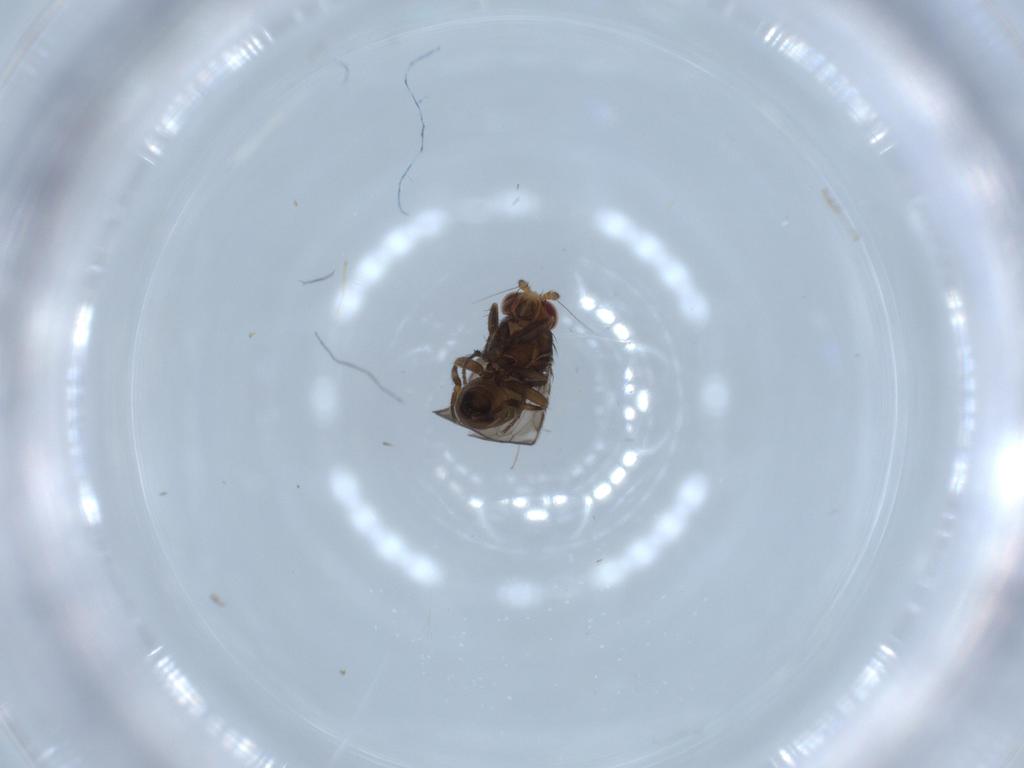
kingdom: Animalia
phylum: Arthropoda
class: Insecta
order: Diptera
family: Sphaeroceridae
